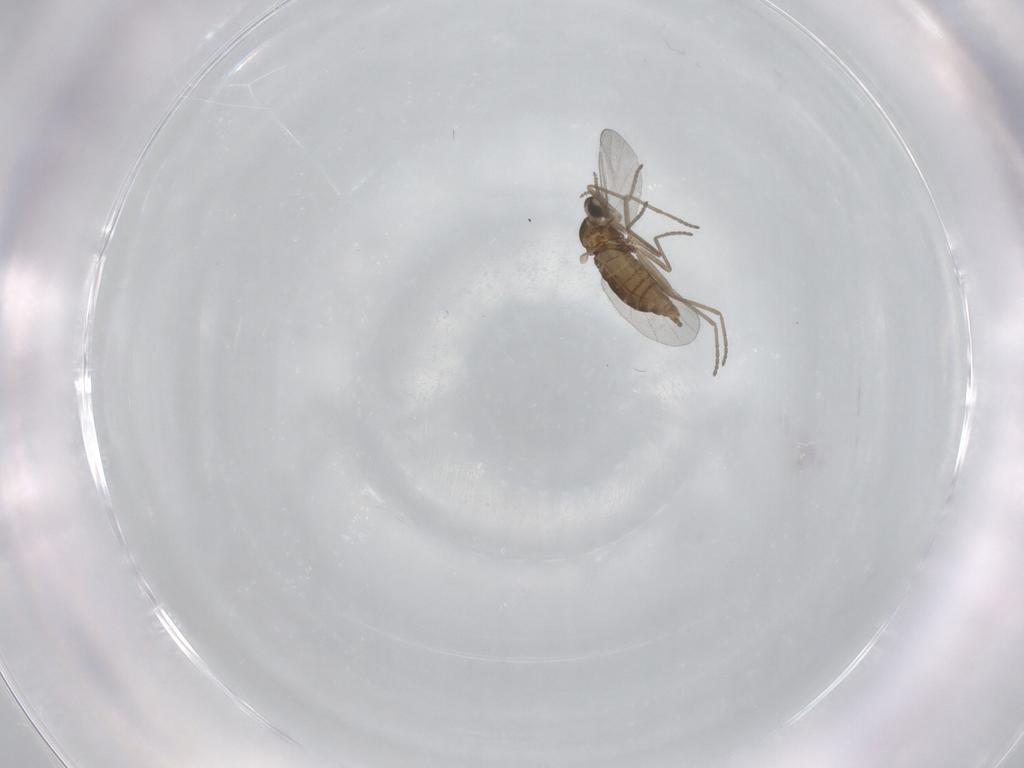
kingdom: Animalia
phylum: Arthropoda
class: Insecta
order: Diptera
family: Cecidomyiidae
